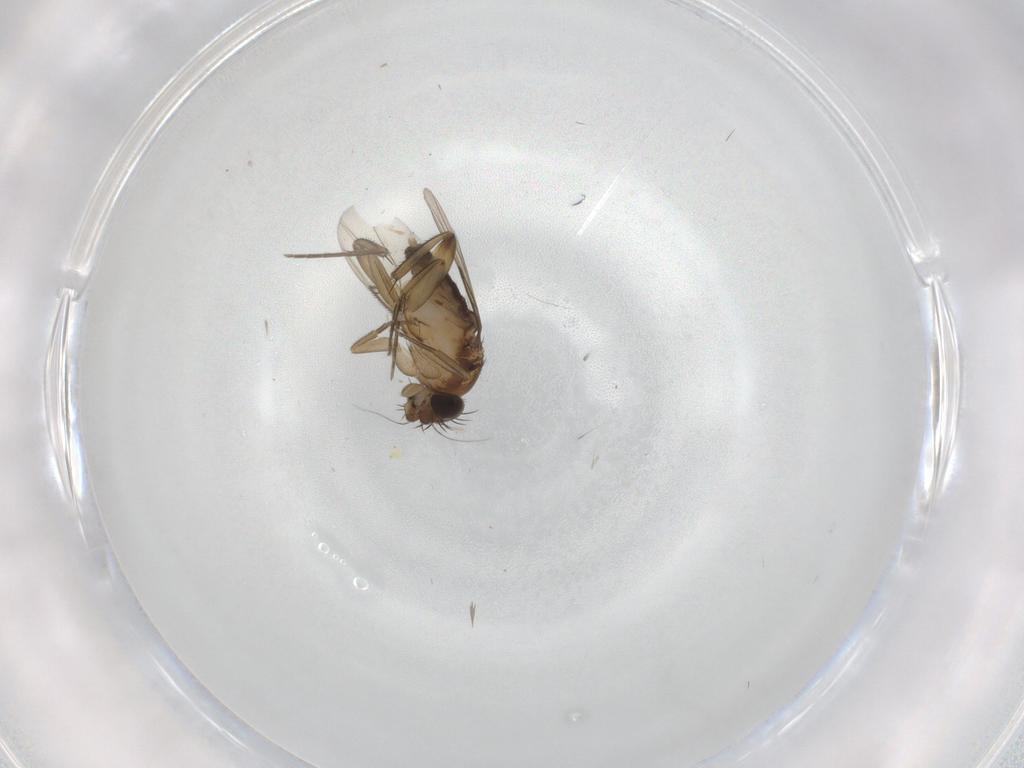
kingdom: Animalia
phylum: Arthropoda
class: Insecta
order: Diptera
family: Phoridae
